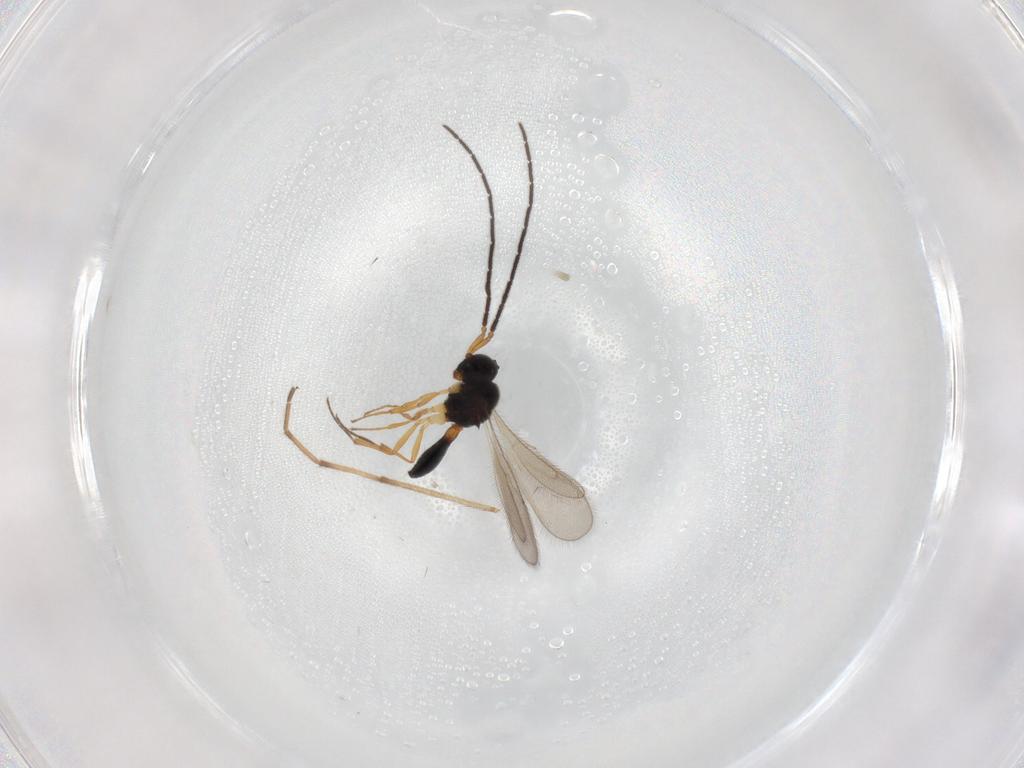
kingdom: Animalia
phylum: Arthropoda
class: Insecta
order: Hymenoptera
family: Scelionidae
